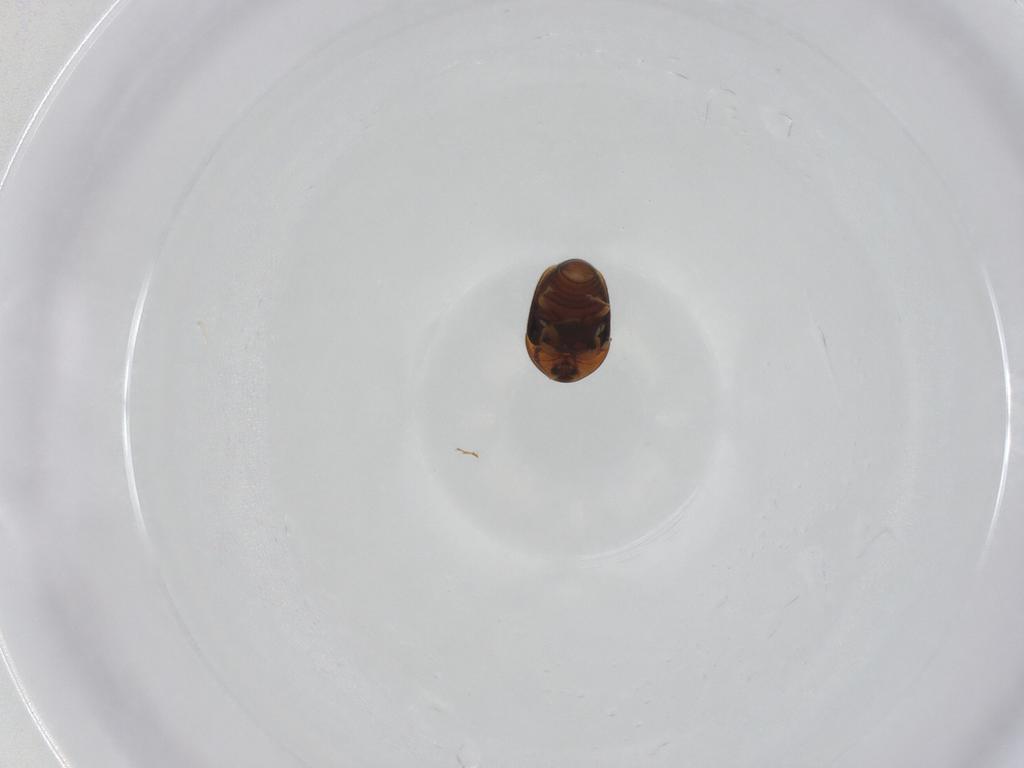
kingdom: Animalia
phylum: Arthropoda
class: Insecta
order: Coleoptera
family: Corylophidae
